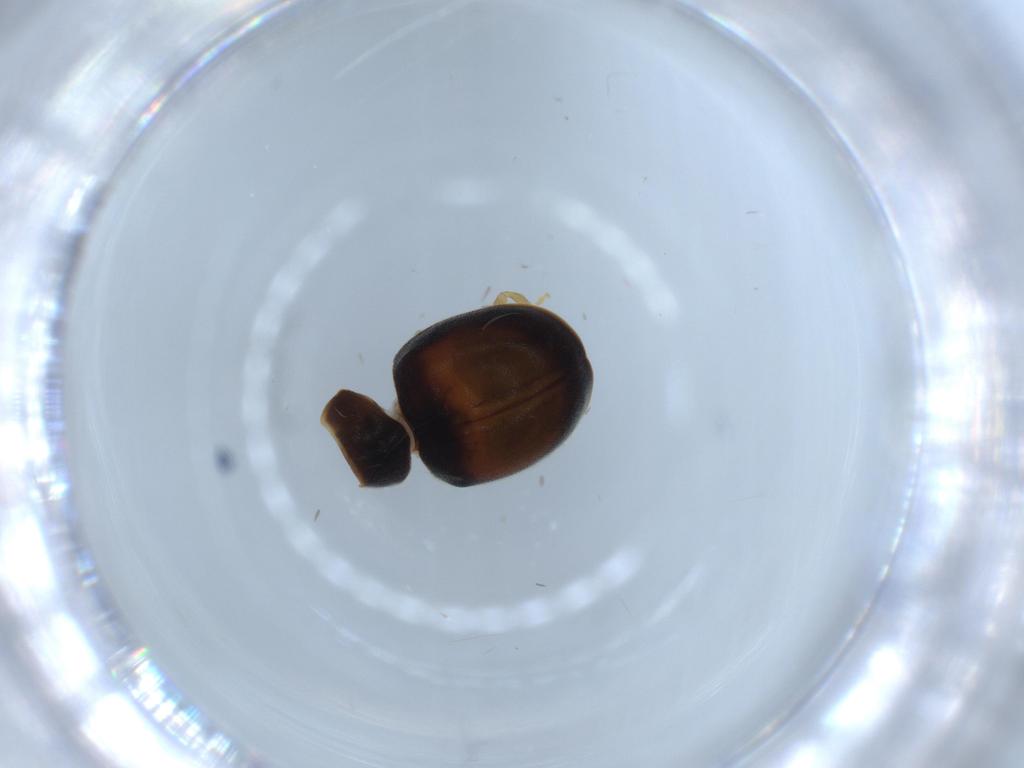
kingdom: Animalia
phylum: Arthropoda
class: Insecta
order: Coleoptera
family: Coccinellidae
